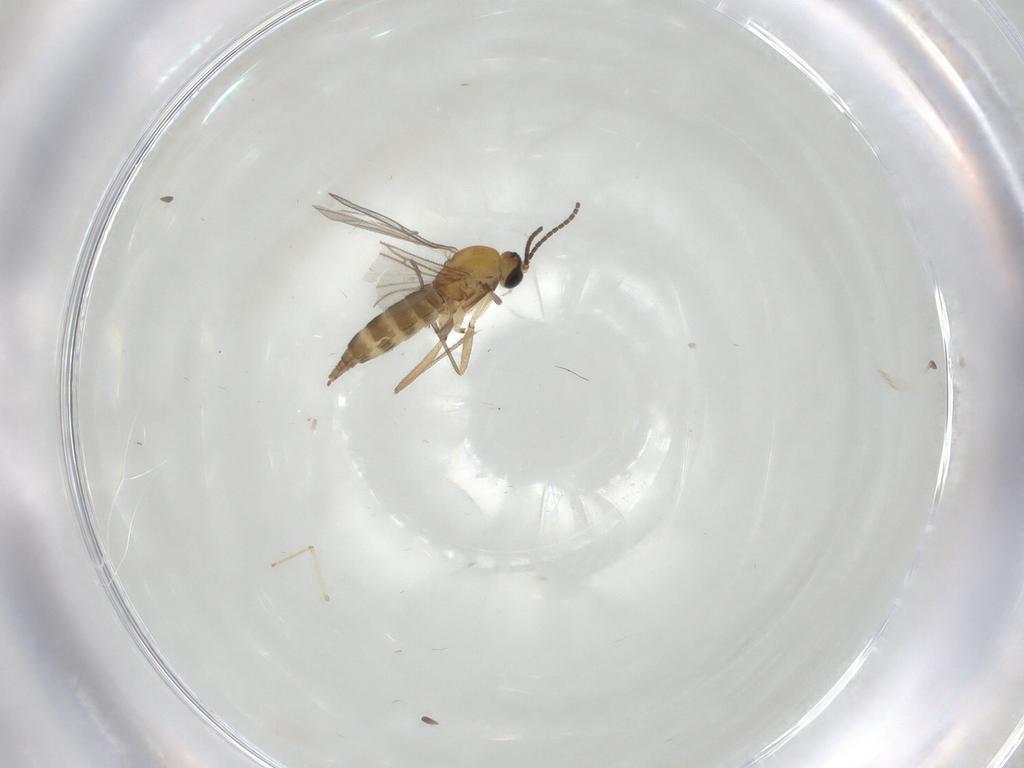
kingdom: Animalia
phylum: Arthropoda
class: Insecta
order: Diptera
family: Sciaridae
